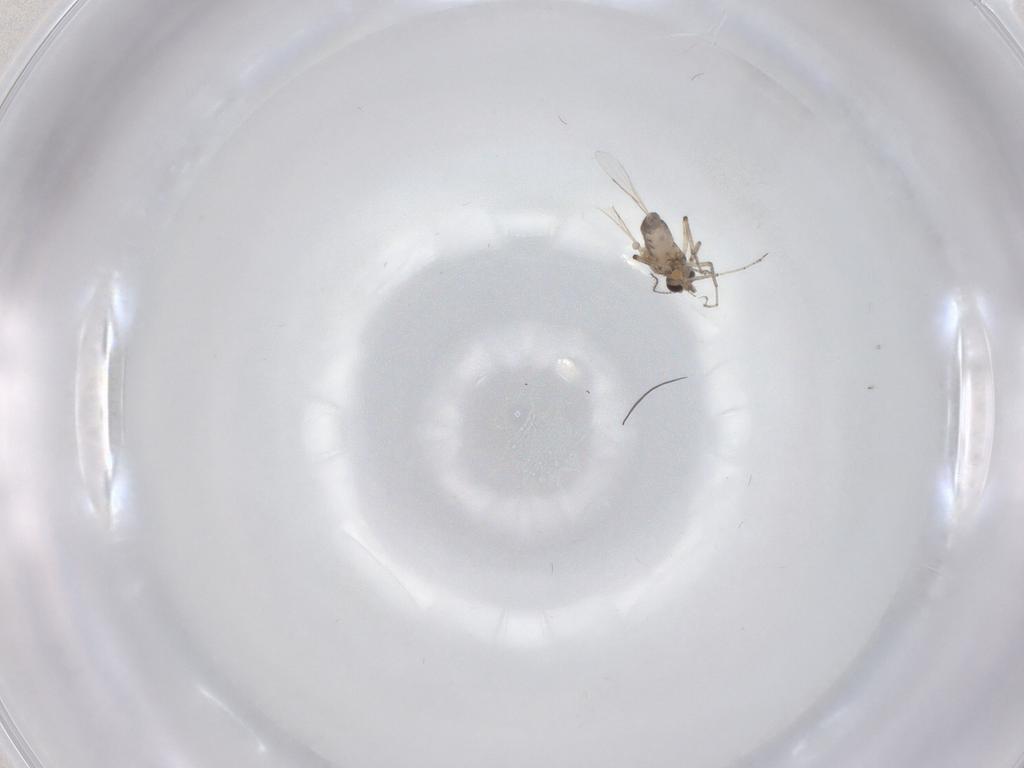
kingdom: Animalia
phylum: Arthropoda
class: Insecta
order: Diptera
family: Ceratopogonidae
